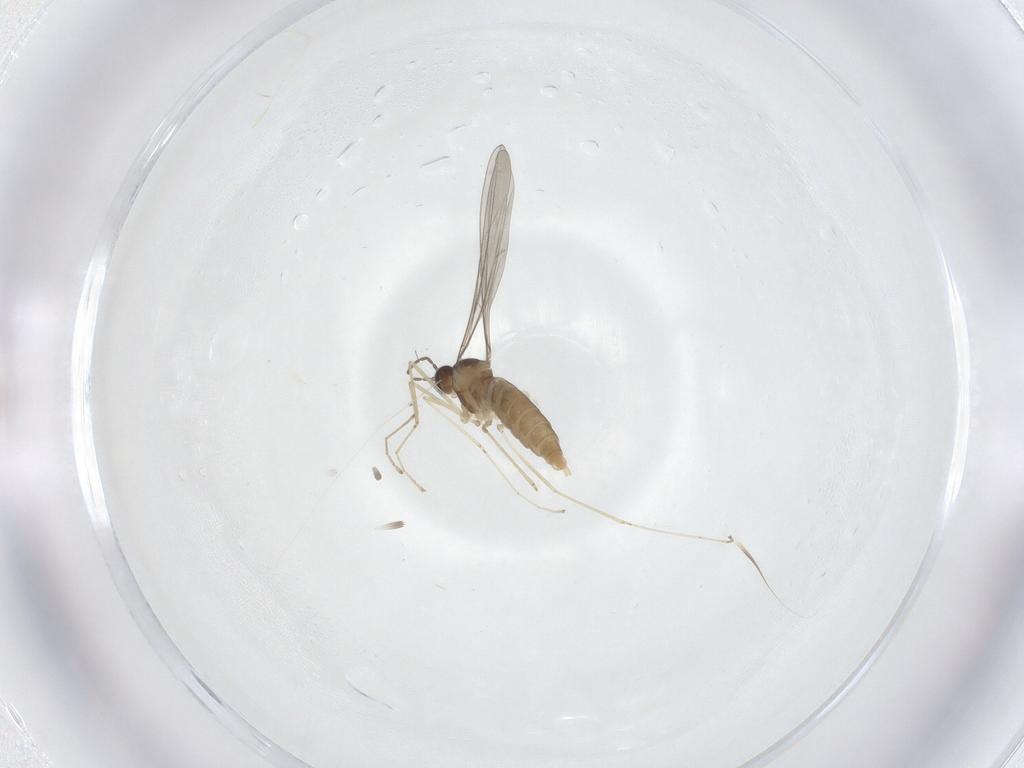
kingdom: Animalia
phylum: Arthropoda
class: Insecta
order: Diptera
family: Cecidomyiidae
